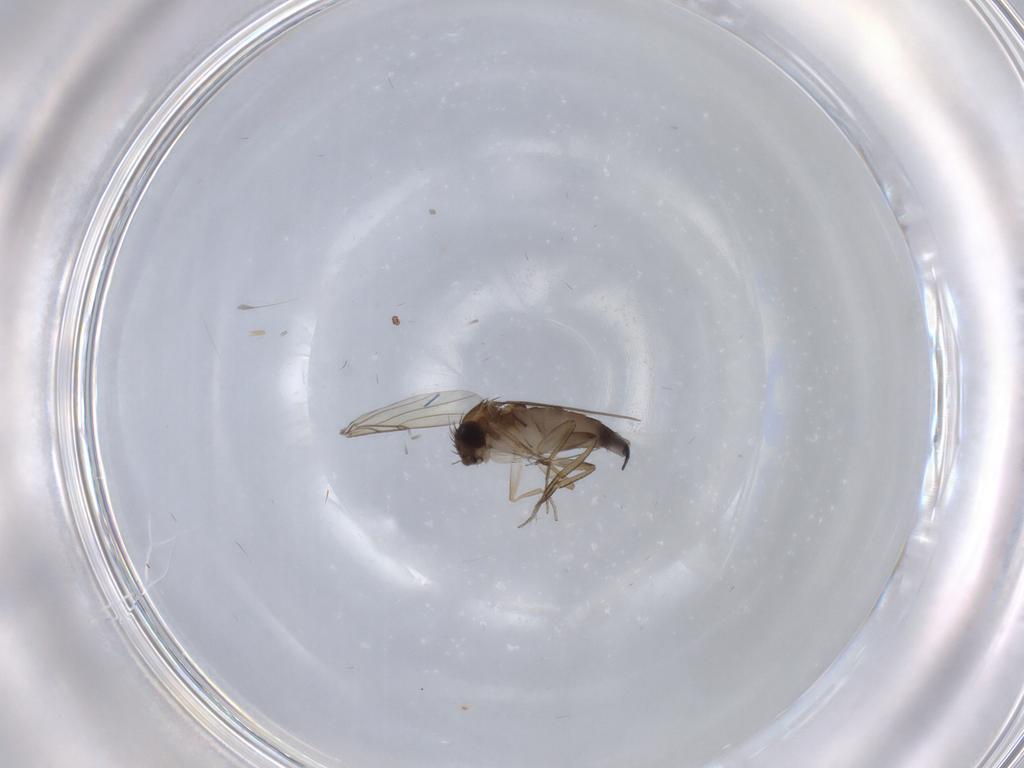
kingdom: Animalia
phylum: Arthropoda
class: Insecta
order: Diptera
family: Phoridae
